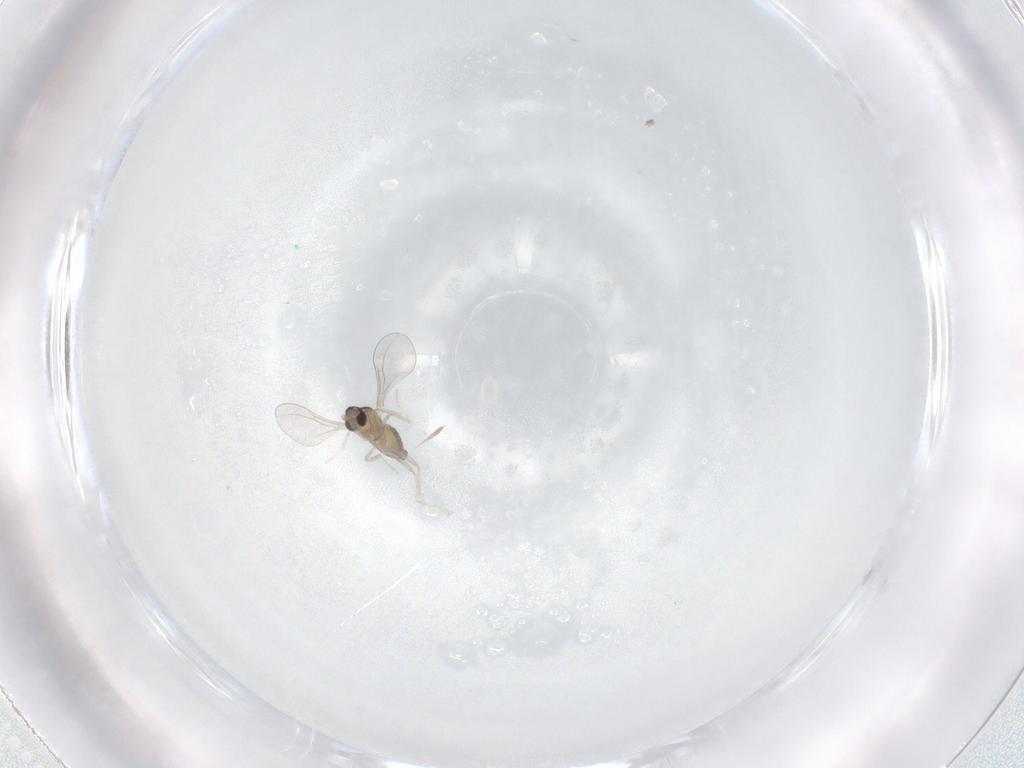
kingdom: Animalia
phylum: Arthropoda
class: Insecta
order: Diptera
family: Cecidomyiidae
